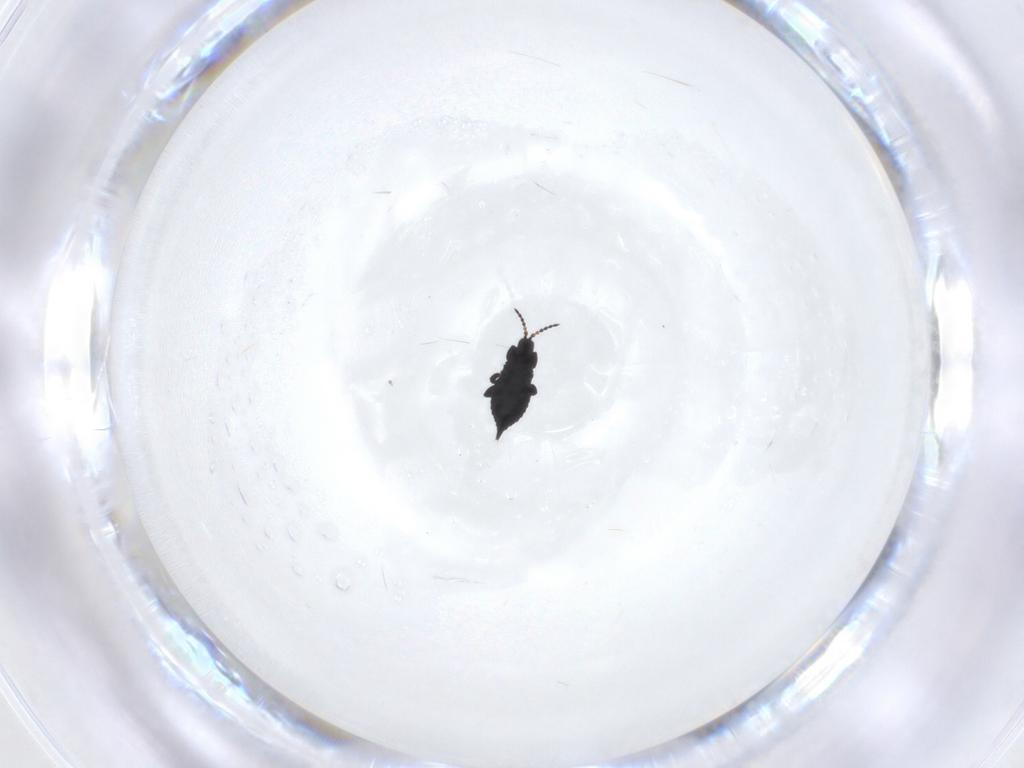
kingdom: Animalia
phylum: Arthropoda
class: Insecta
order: Thysanoptera
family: Phlaeothripidae
